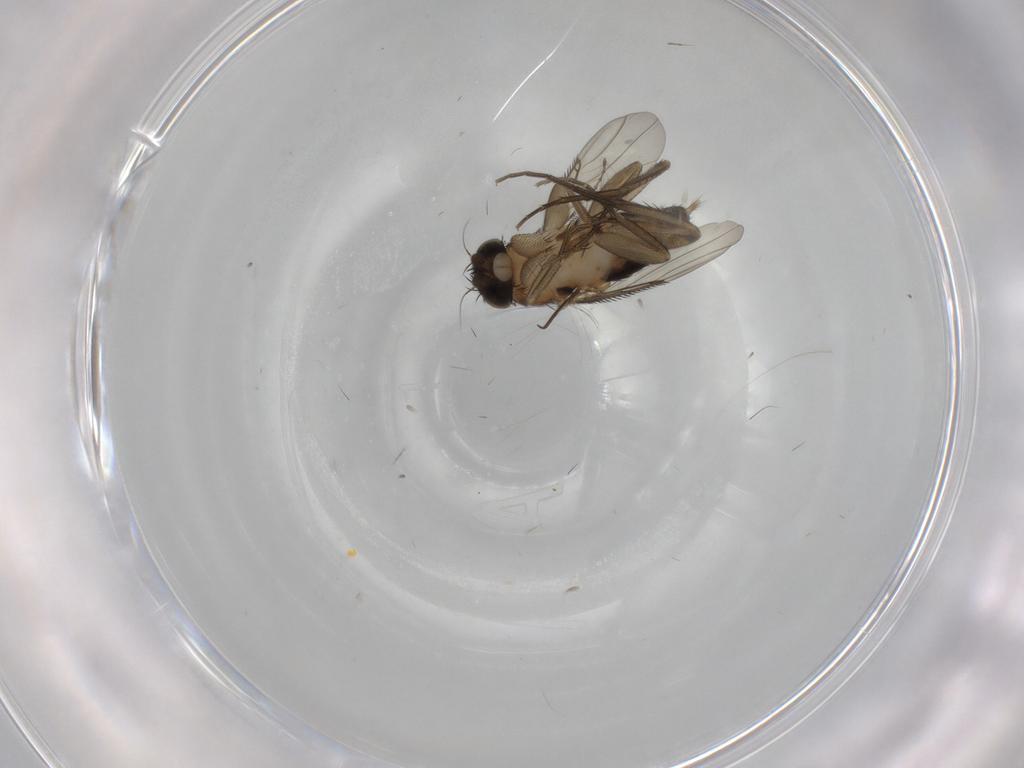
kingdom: Animalia
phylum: Arthropoda
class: Insecta
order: Diptera
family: Phoridae
